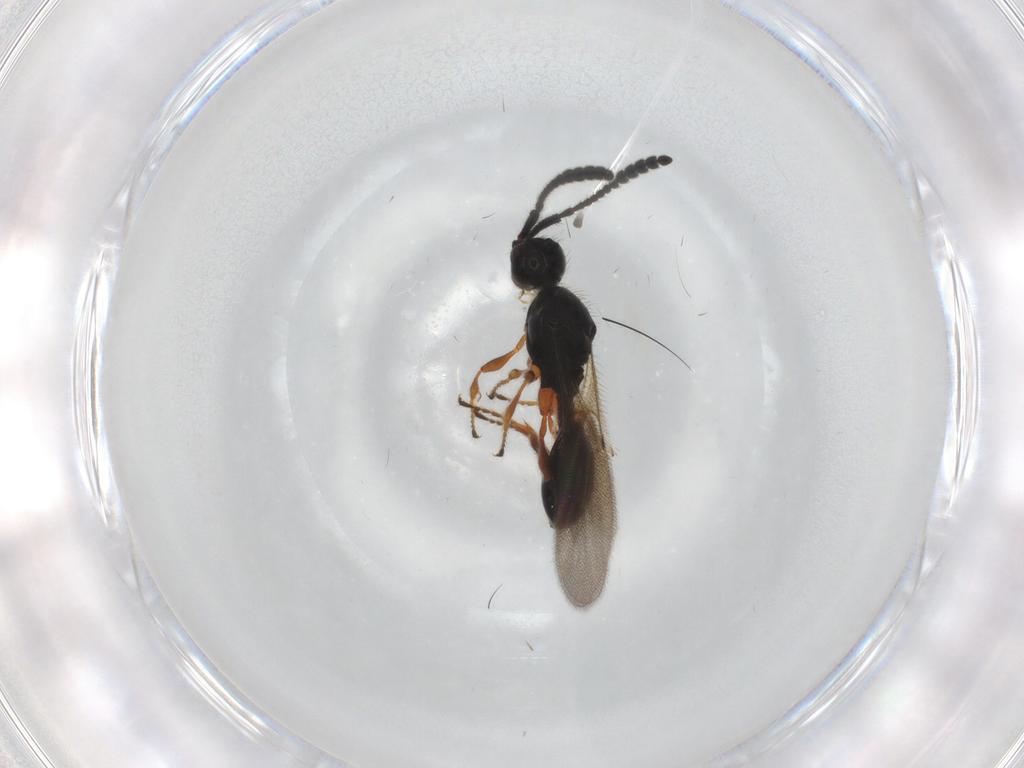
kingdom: Animalia
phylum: Arthropoda
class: Insecta
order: Hymenoptera
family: Diapriidae
